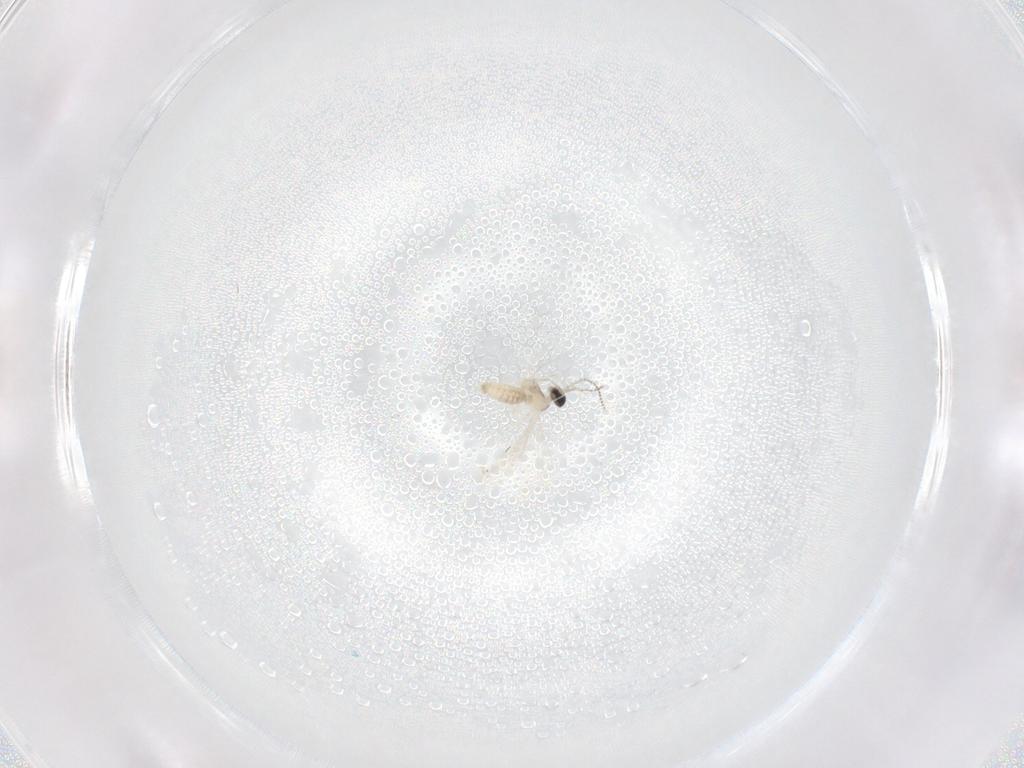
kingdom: Animalia
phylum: Arthropoda
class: Insecta
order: Diptera
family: Cecidomyiidae
